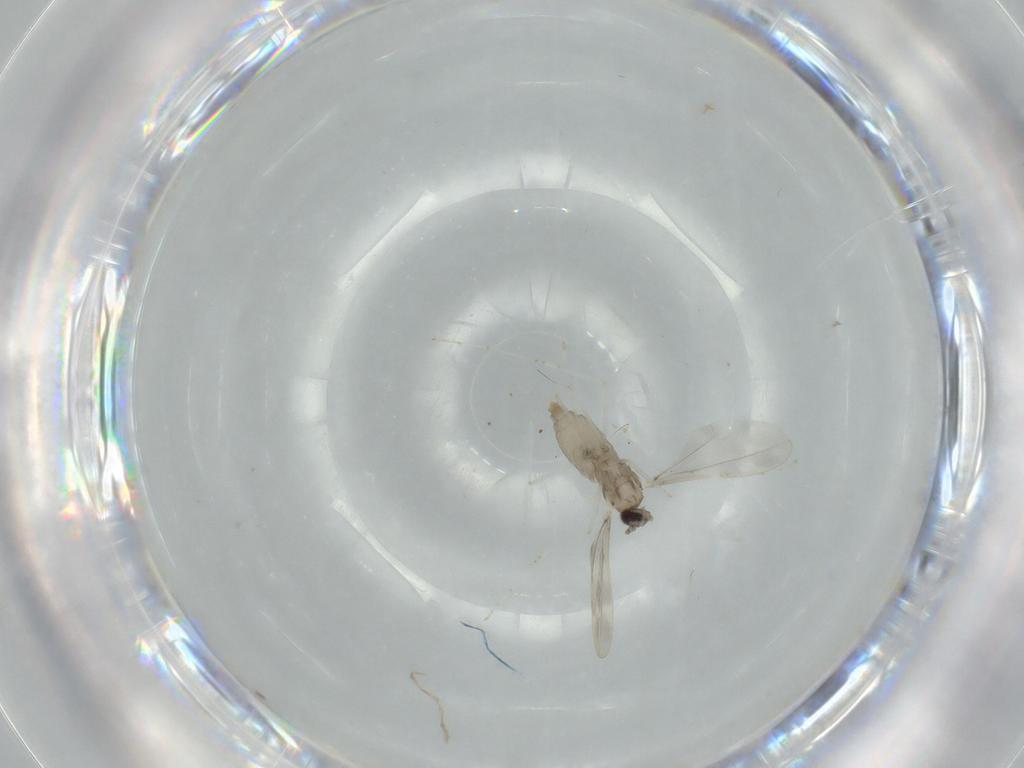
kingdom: Animalia
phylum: Arthropoda
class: Insecta
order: Diptera
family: Cecidomyiidae
